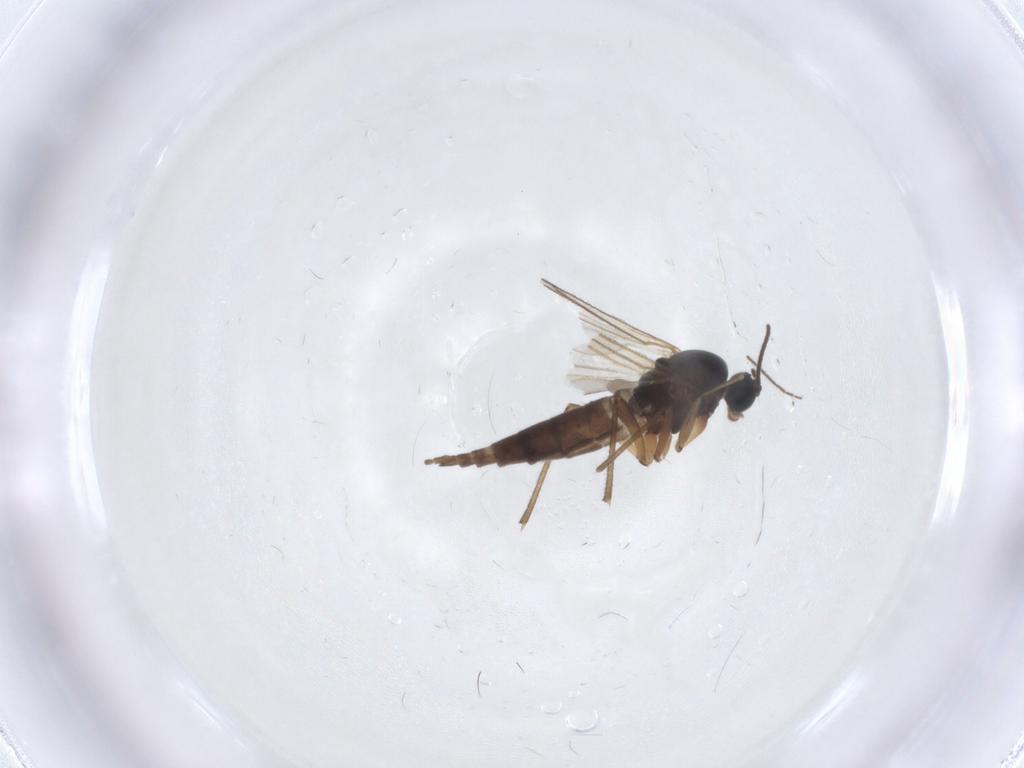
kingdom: Animalia
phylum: Arthropoda
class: Insecta
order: Diptera
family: Sciaridae
